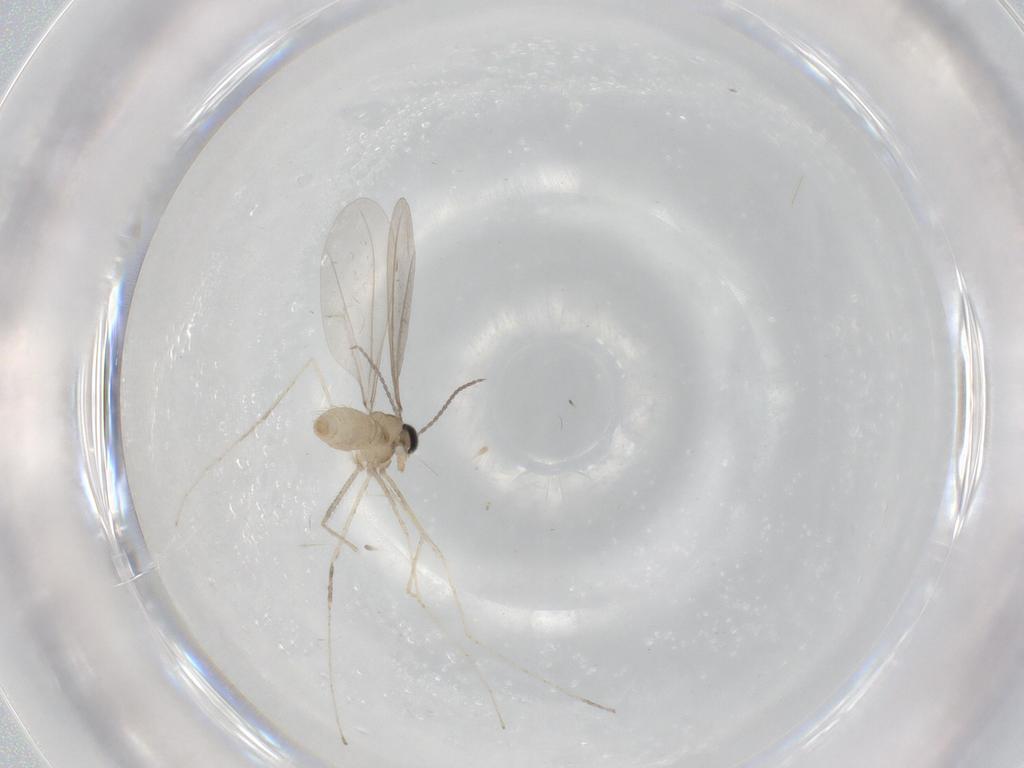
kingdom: Animalia
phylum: Arthropoda
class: Insecta
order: Diptera
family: Cecidomyiidae
